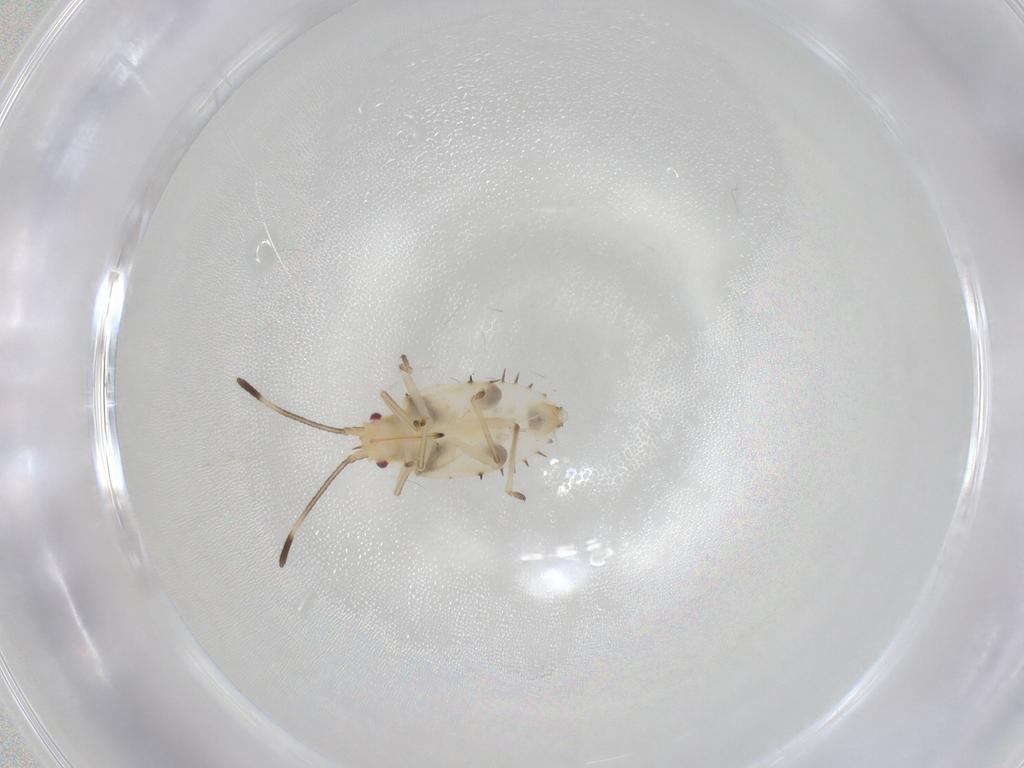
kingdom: Animalia
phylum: Arthropoda
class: Insecta
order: Hemiptera
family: Tingidae
